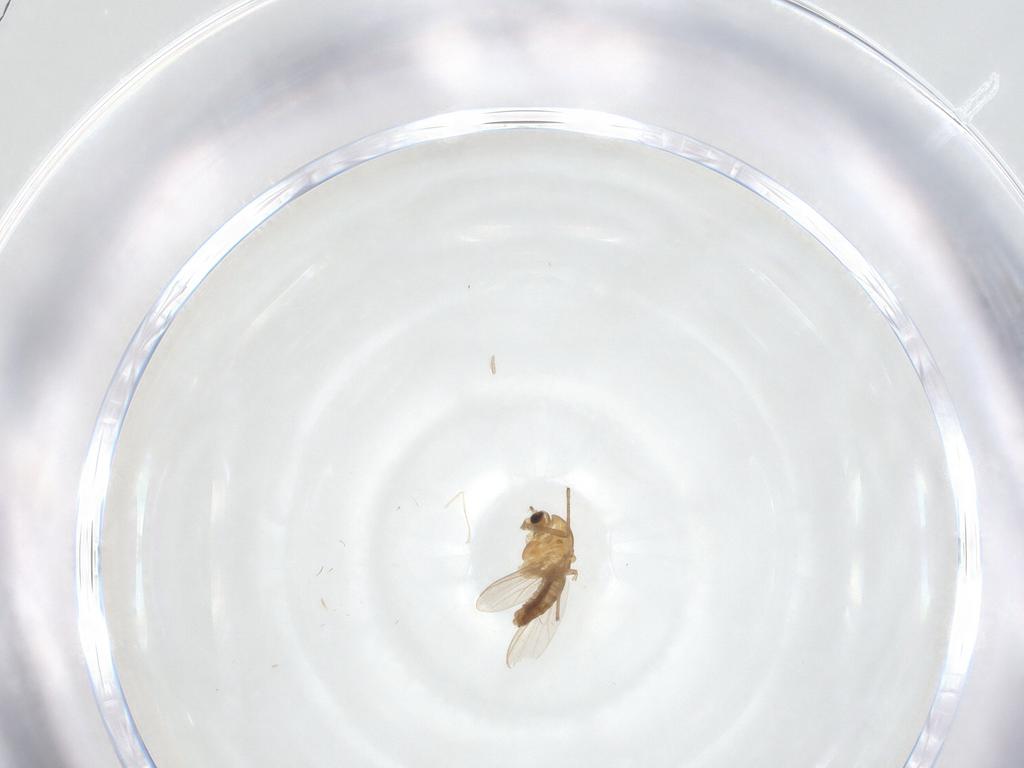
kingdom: Animalia
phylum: Arthropoda
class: Insecta
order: Diptera
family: Chironomidae
